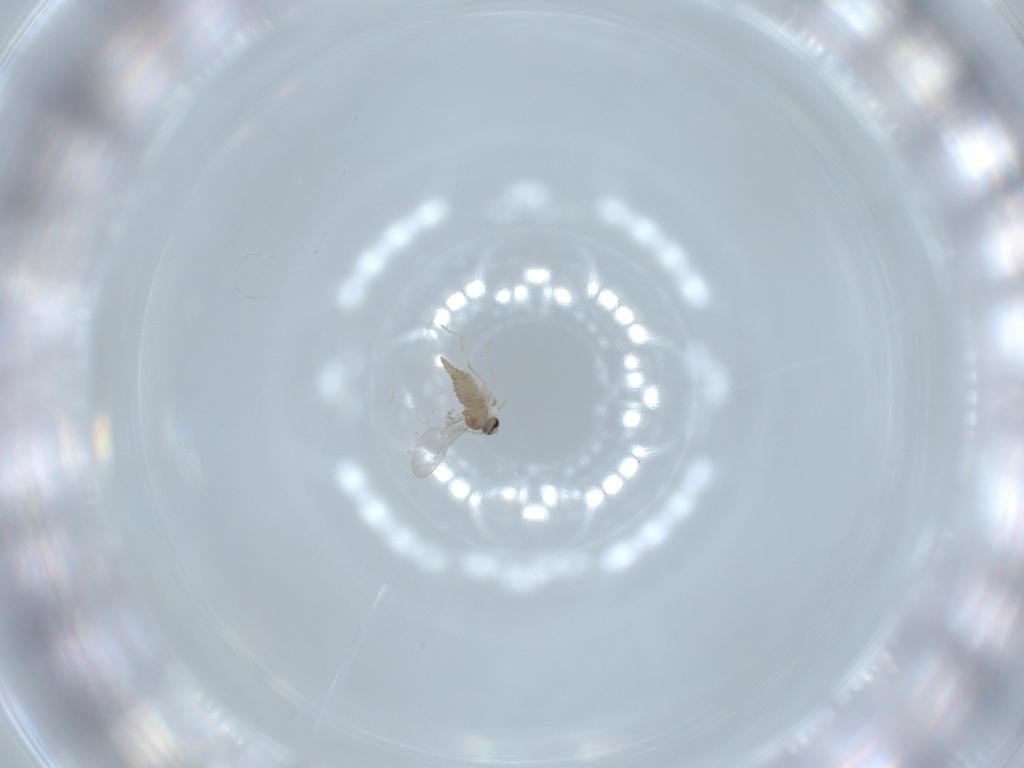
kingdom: Animalia
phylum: Arthropoda
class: Insecta
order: Diptera
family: Cecidomyiidae
